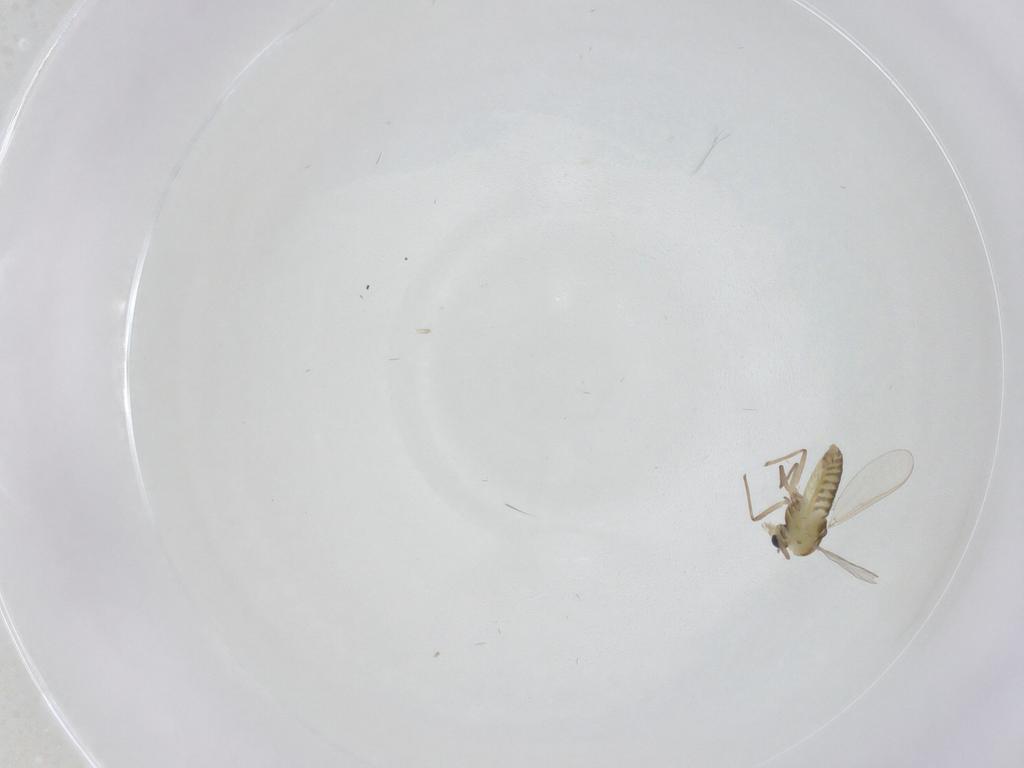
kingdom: Animalia
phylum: Arthropoda
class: Insecta
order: Diptera
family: Chironomidae
